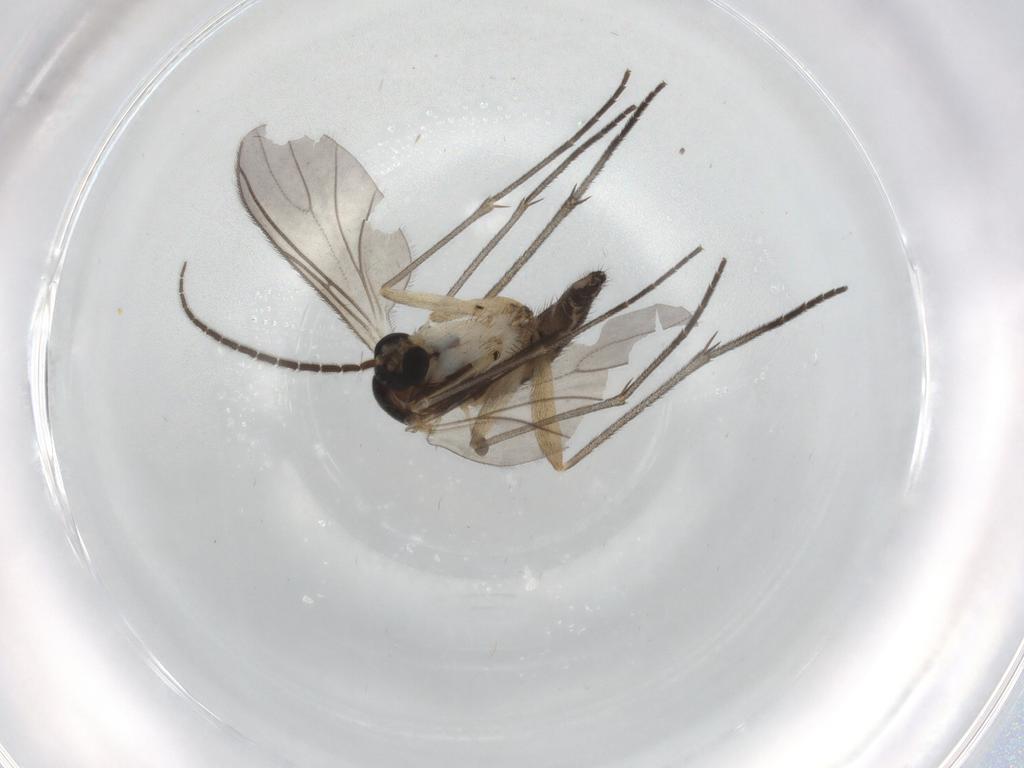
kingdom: Animalia
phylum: Arthropoda
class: Insecta
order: Diptera
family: Sciaridae
